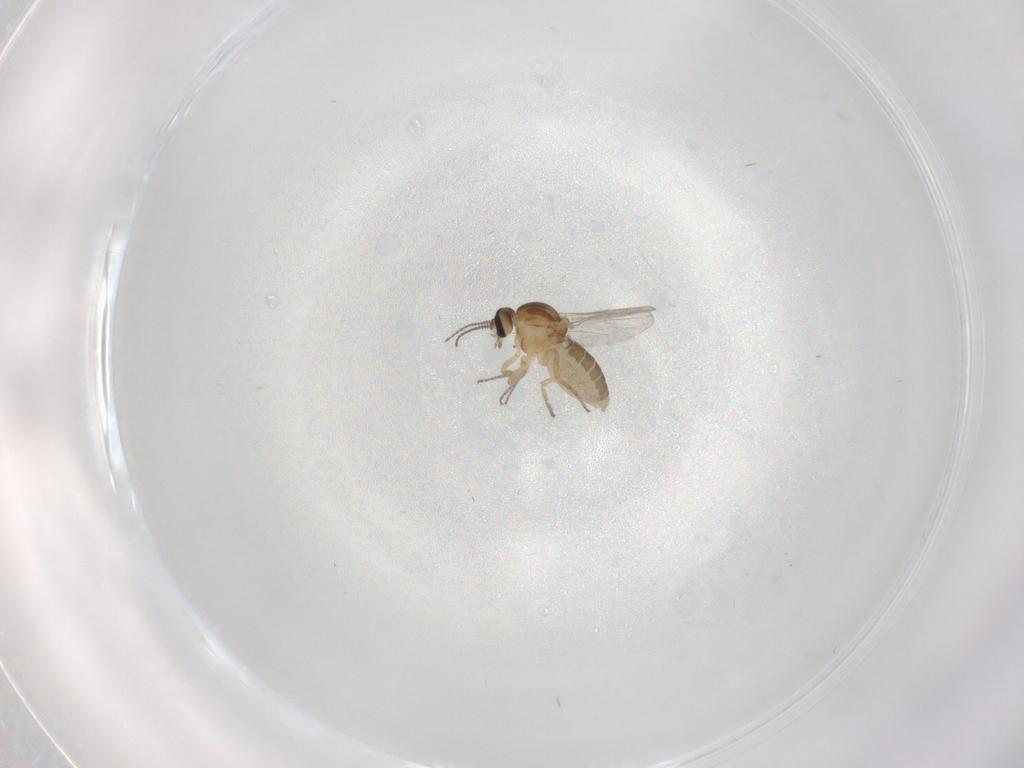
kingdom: Animalia
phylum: Arthropoda
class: Insecta
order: Diptera
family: Ceratopogonidae
